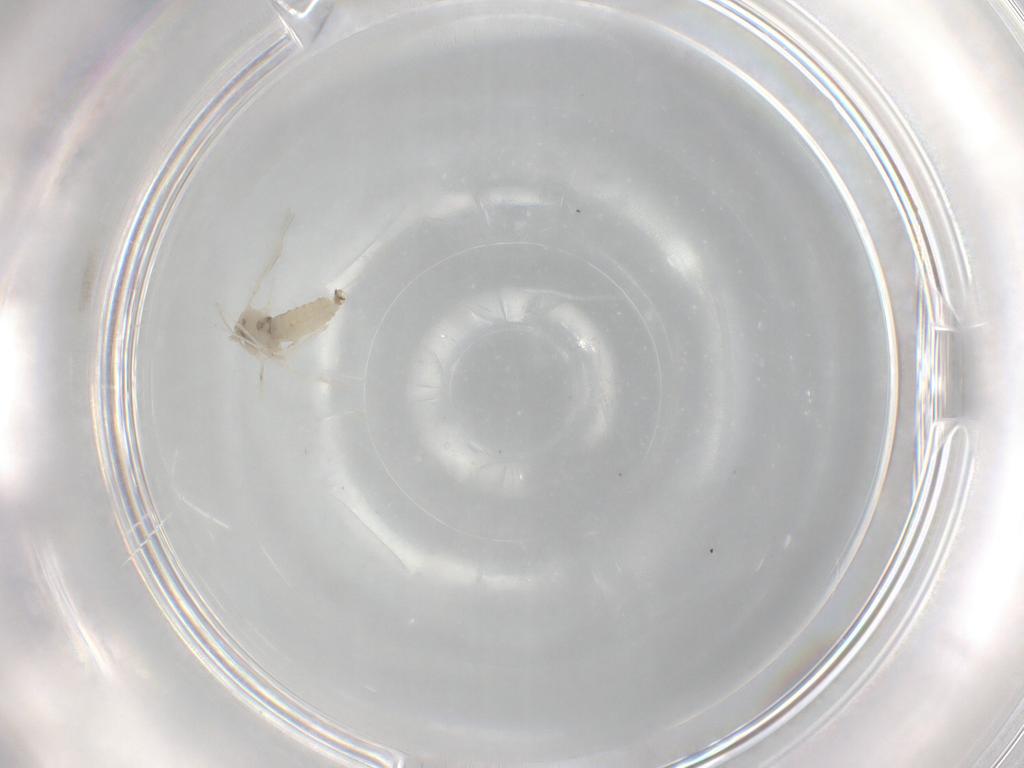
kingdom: Animalia
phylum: Arthropoda
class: Insecta
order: Diptera
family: Cecidomyiidae
